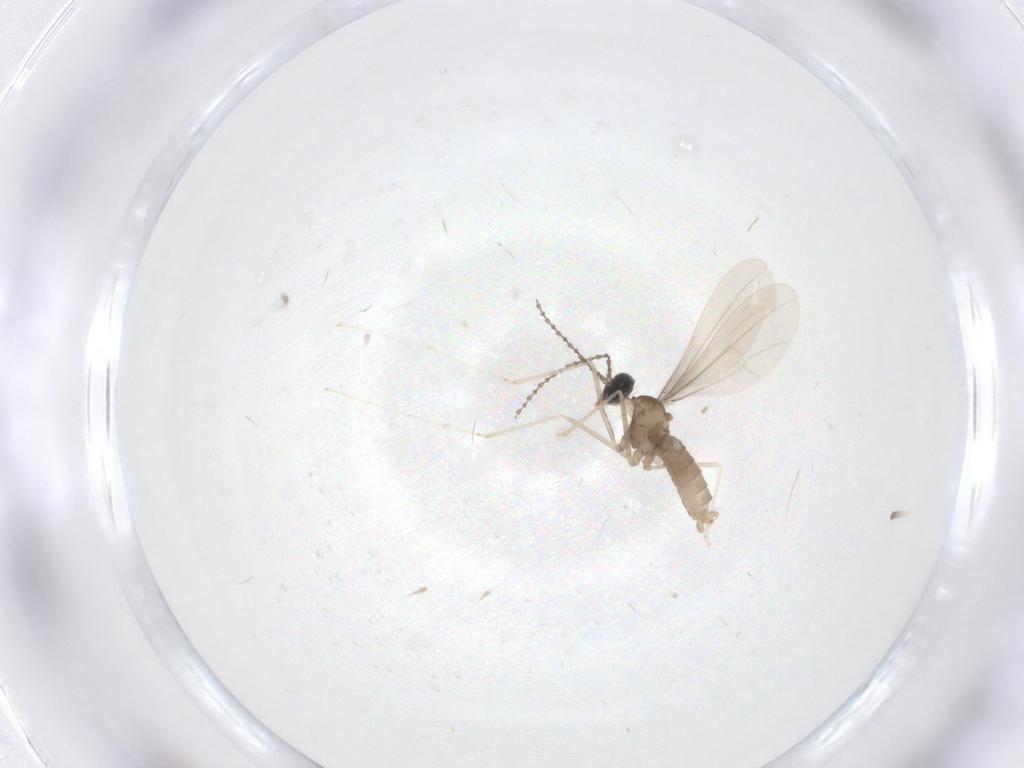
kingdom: Animalia
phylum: Arthropoda
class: Insecta
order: Diptera
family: Cecidomyiidae
